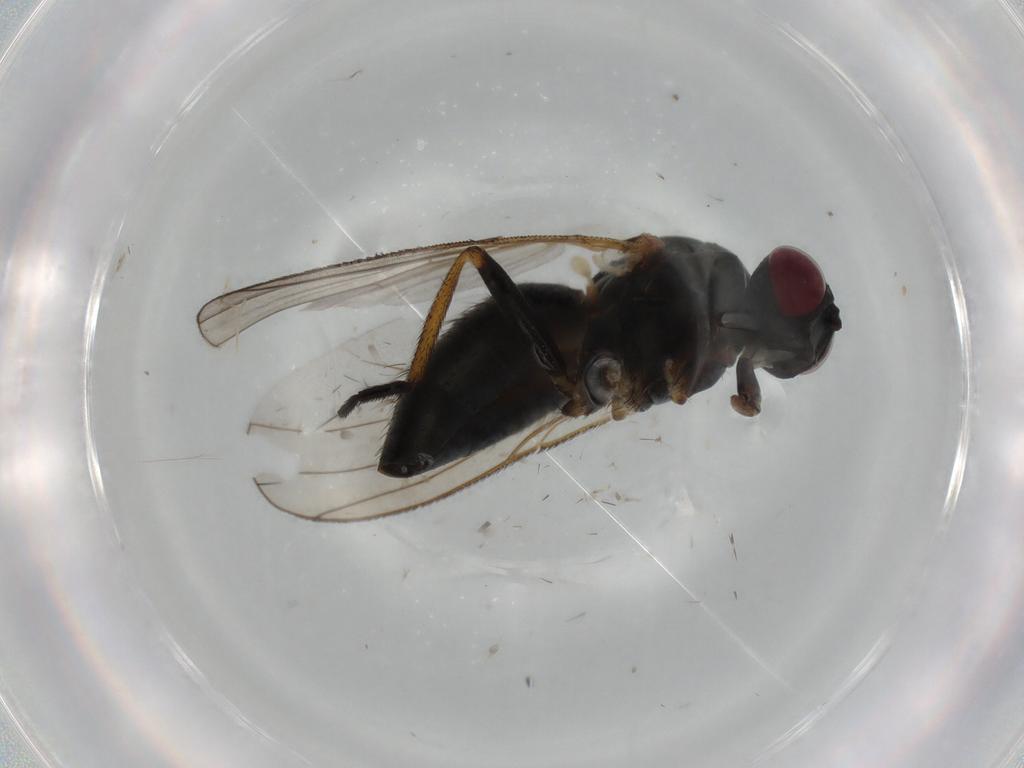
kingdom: Animalia
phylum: Arthropoda
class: Insecta
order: Diptera
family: Muscidae
